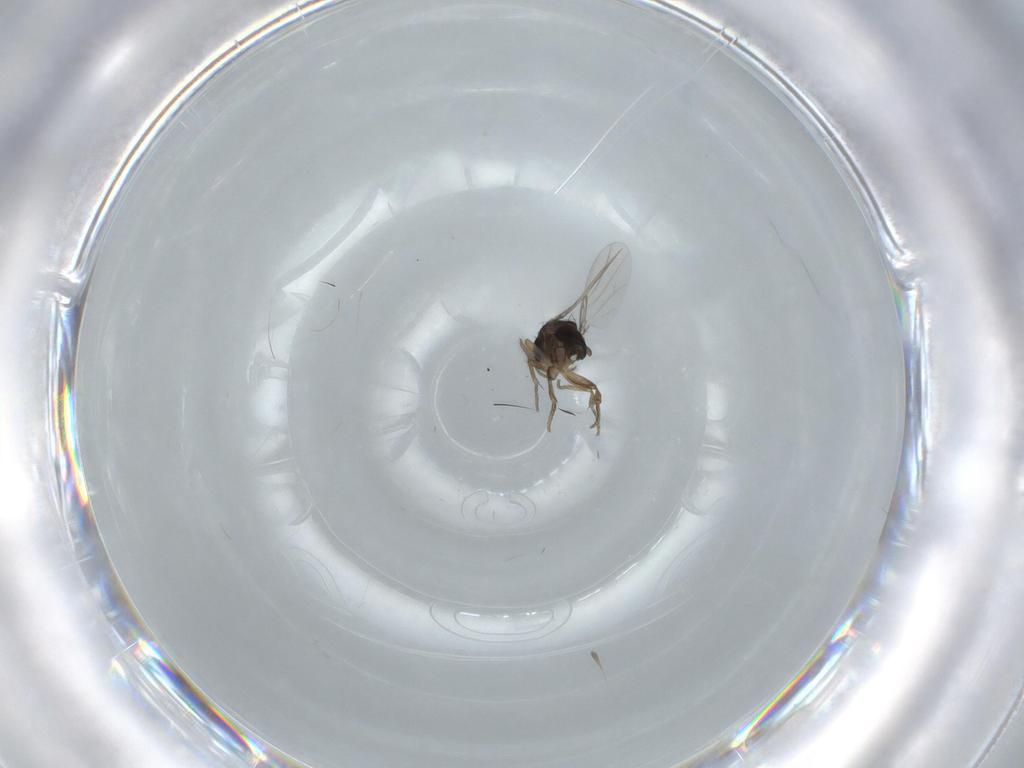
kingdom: Animalia
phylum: Arthropoda
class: Insecta
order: Diptera
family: Phoridae
